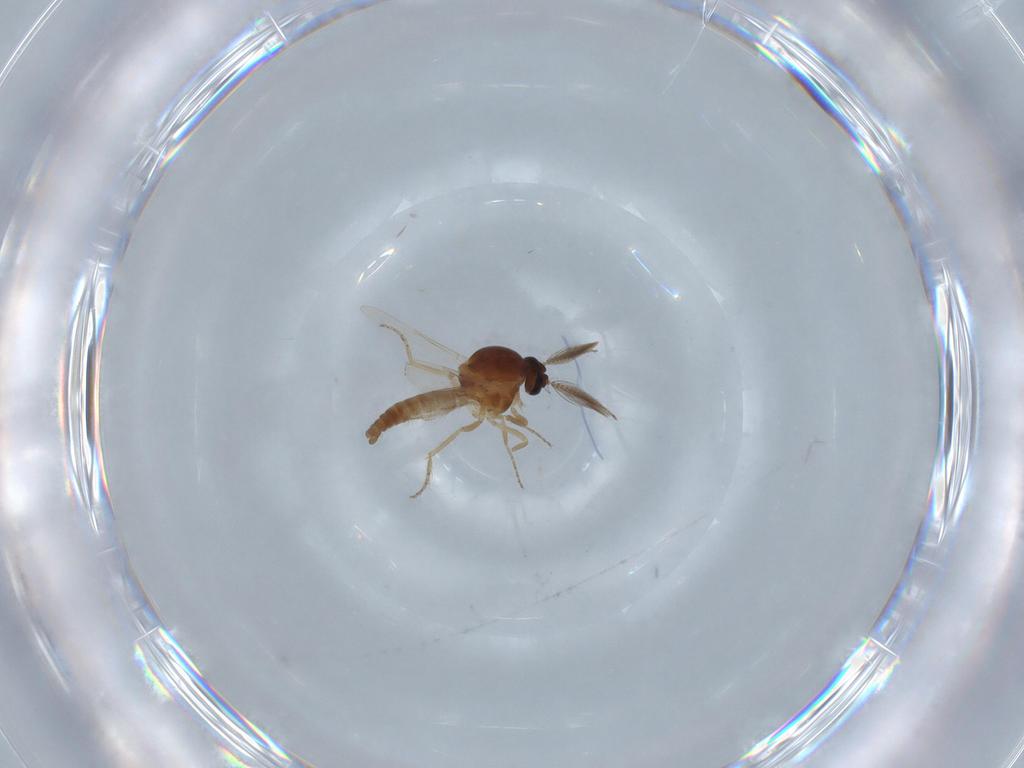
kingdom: Animalia
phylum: Arthropoda
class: Insecta
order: Diptera
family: Ceratopogonidae
